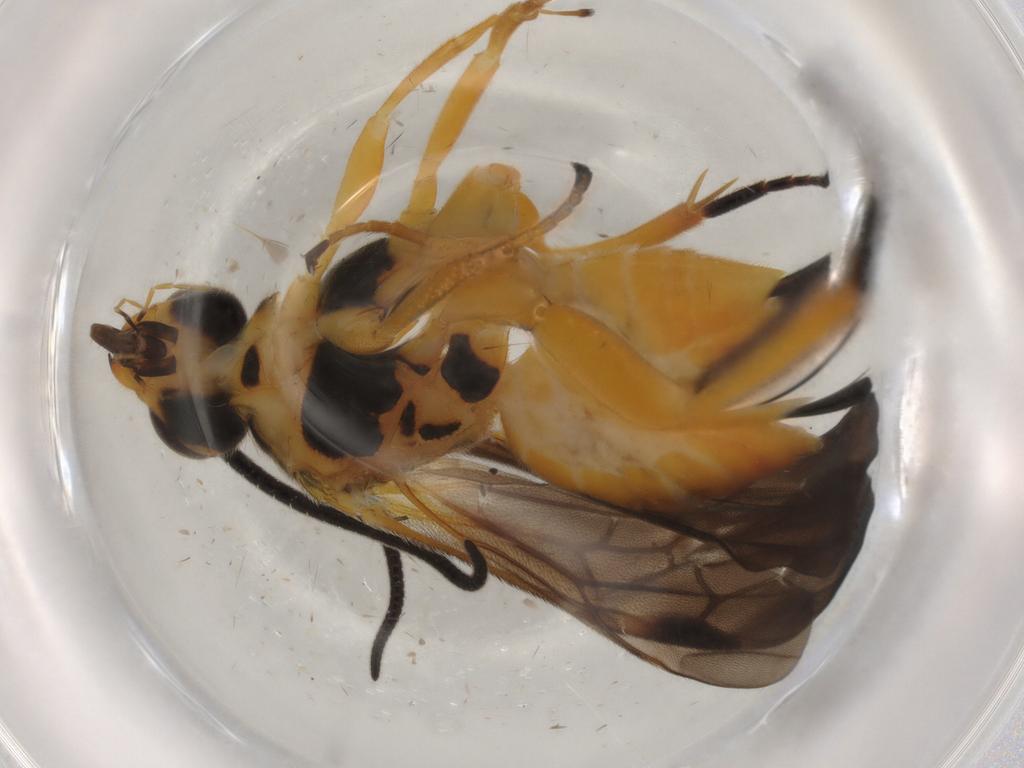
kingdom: Animalia
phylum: Arthropoda
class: Insecta
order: Hymenoptera
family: Braconidae
